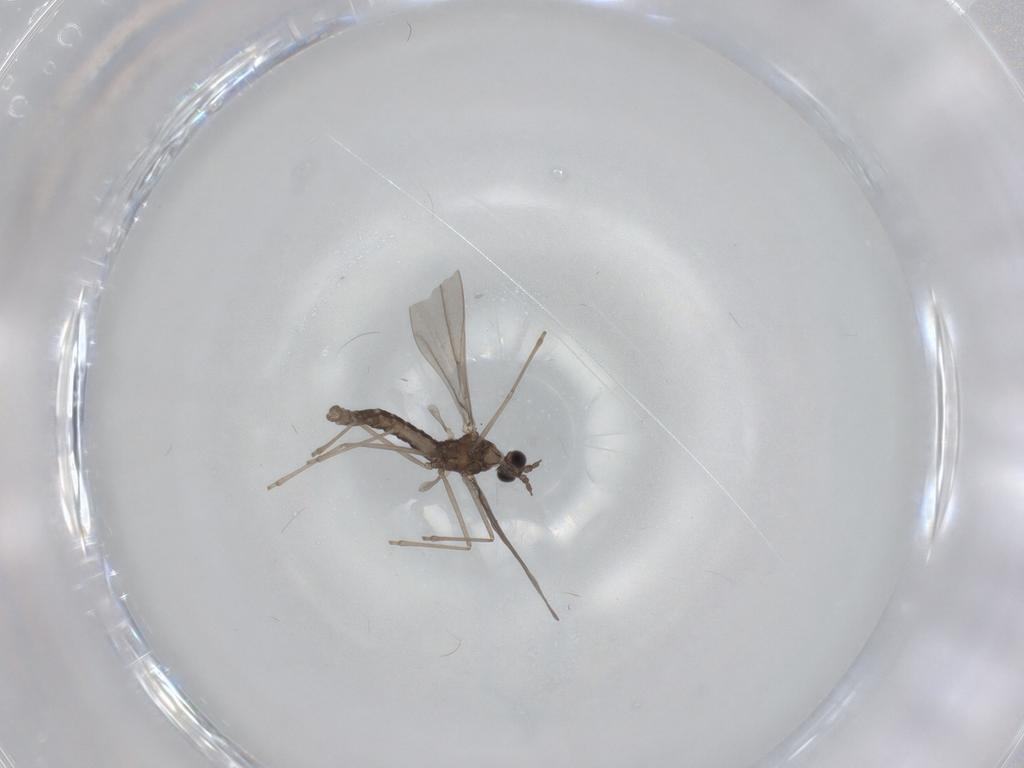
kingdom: Animalia
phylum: Arthropoda
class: Insecta
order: Diptera
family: Cecidomyiidae
